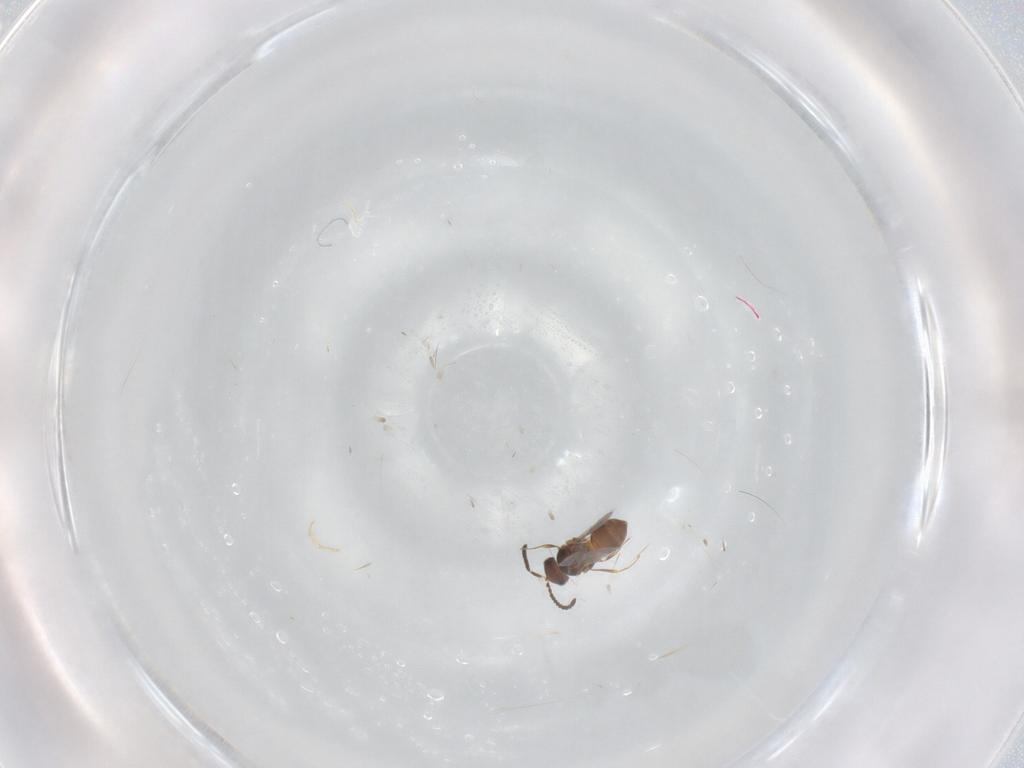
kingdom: Animalia
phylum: Arthropoda
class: Insecta
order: Hymenoptera
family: Scelionidae
